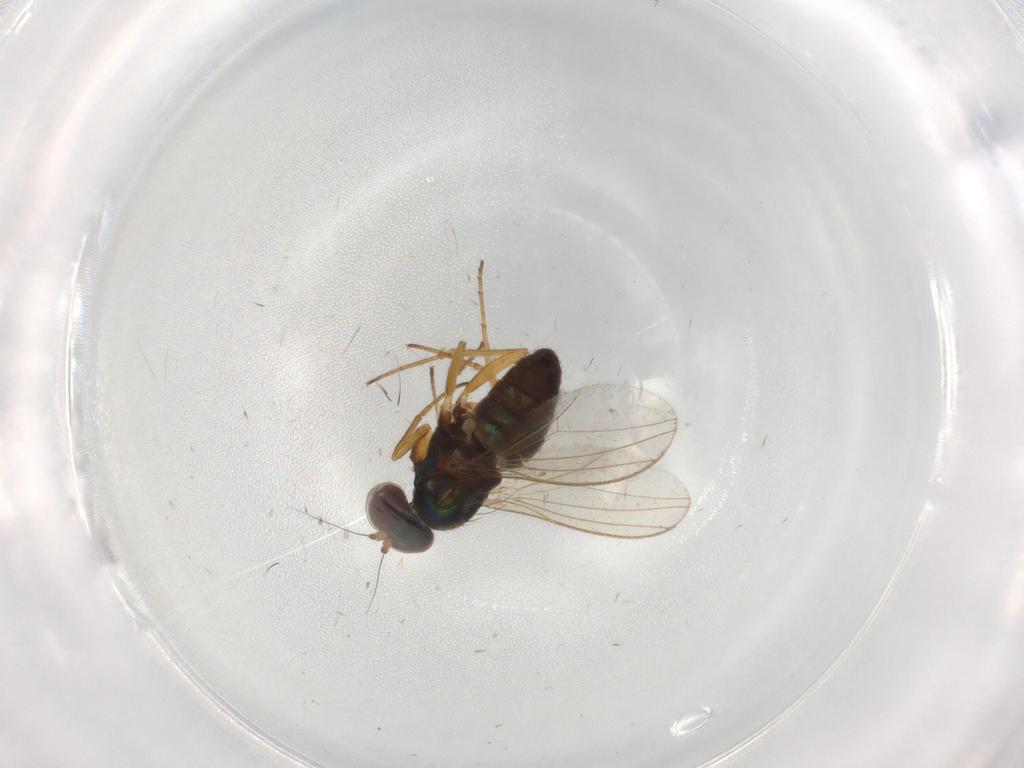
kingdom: Animalia
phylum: Arthropoda
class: Insecta
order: Diptera
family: Dolichopodidae
